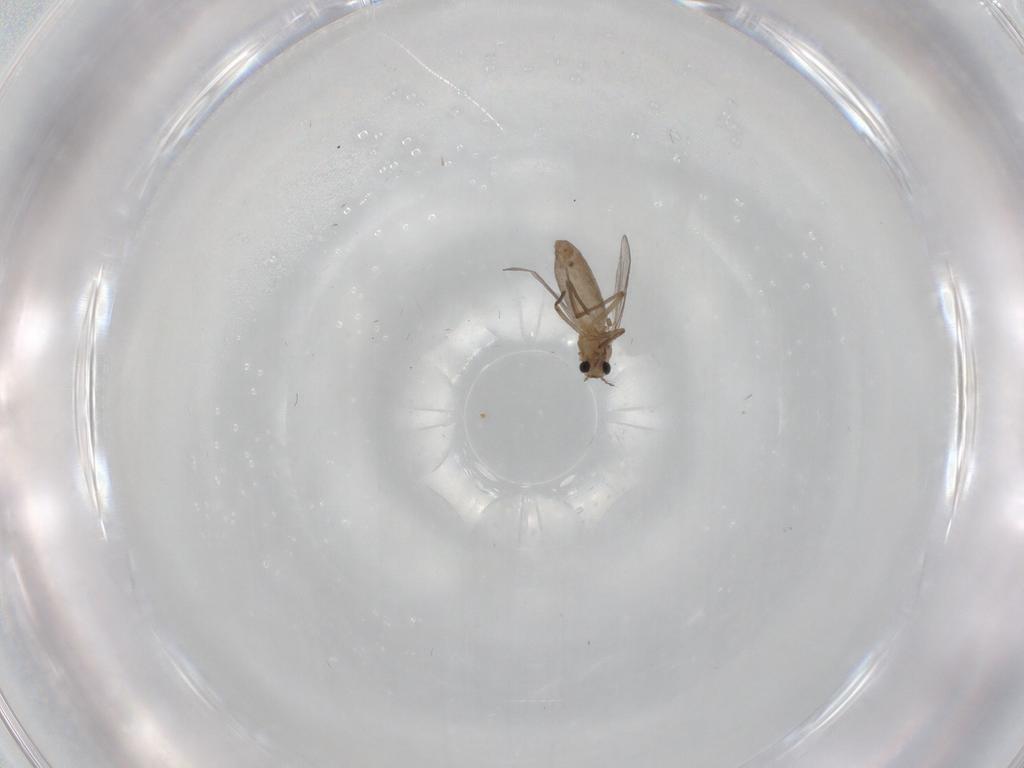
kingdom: Animalia
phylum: Arthropoda
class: Insecta
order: Diptera
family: Chironomidae
